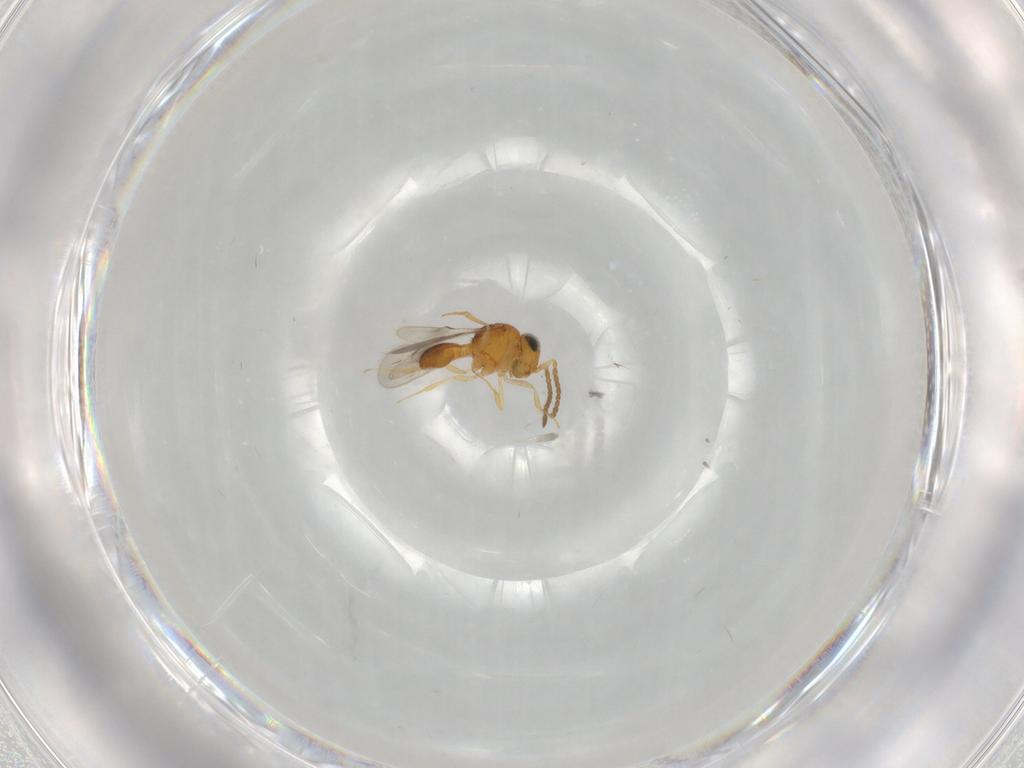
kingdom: Animalia
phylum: Arthropoda
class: Insecta
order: Hymenoptera
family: Scelionidae
